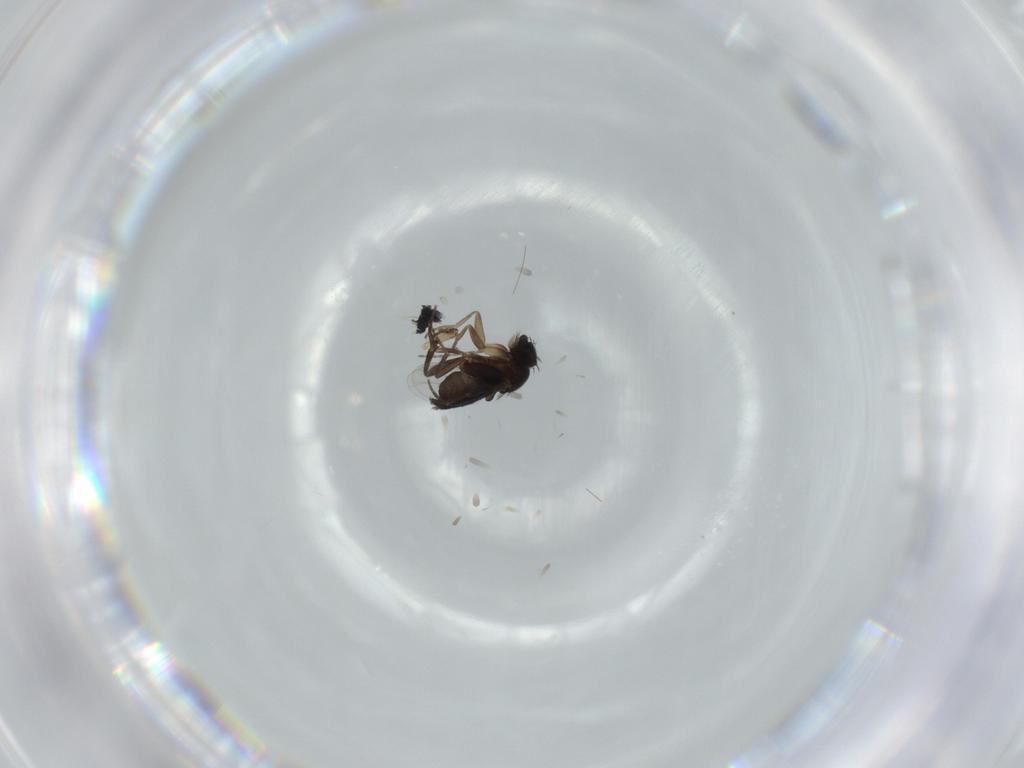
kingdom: Animalia
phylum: Arthropoda
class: Insecta
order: Diptera
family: Phoridae
